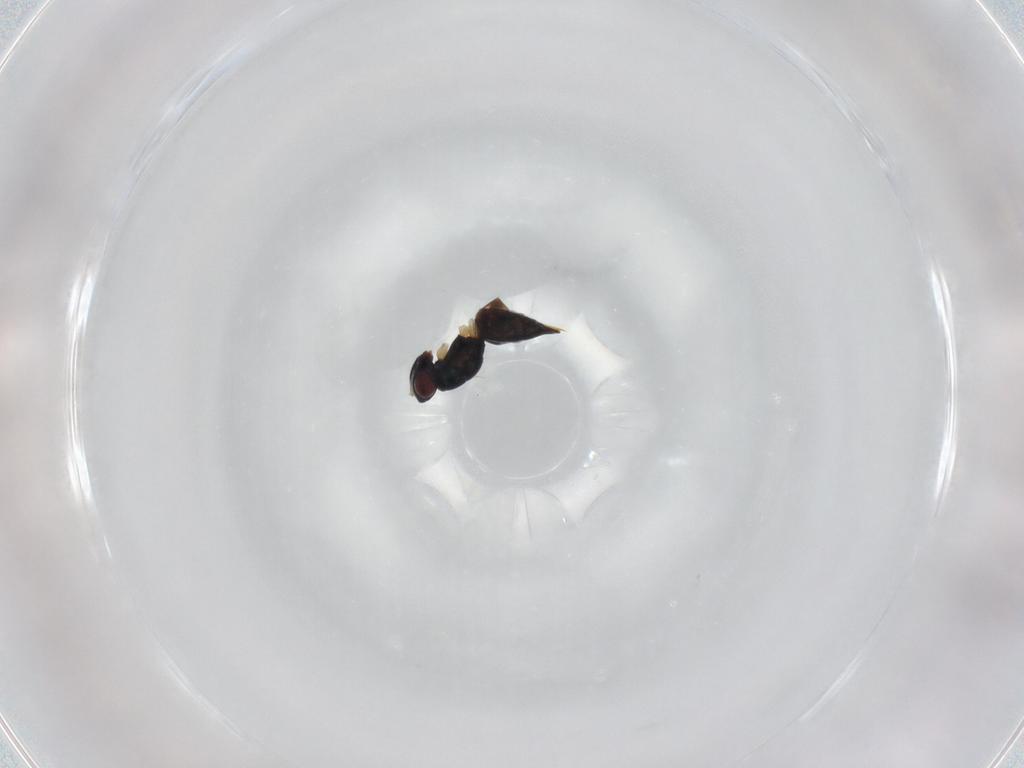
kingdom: Animalia
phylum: Arthropoda
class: Insecta
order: Hymenoptera
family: Eulophidae
